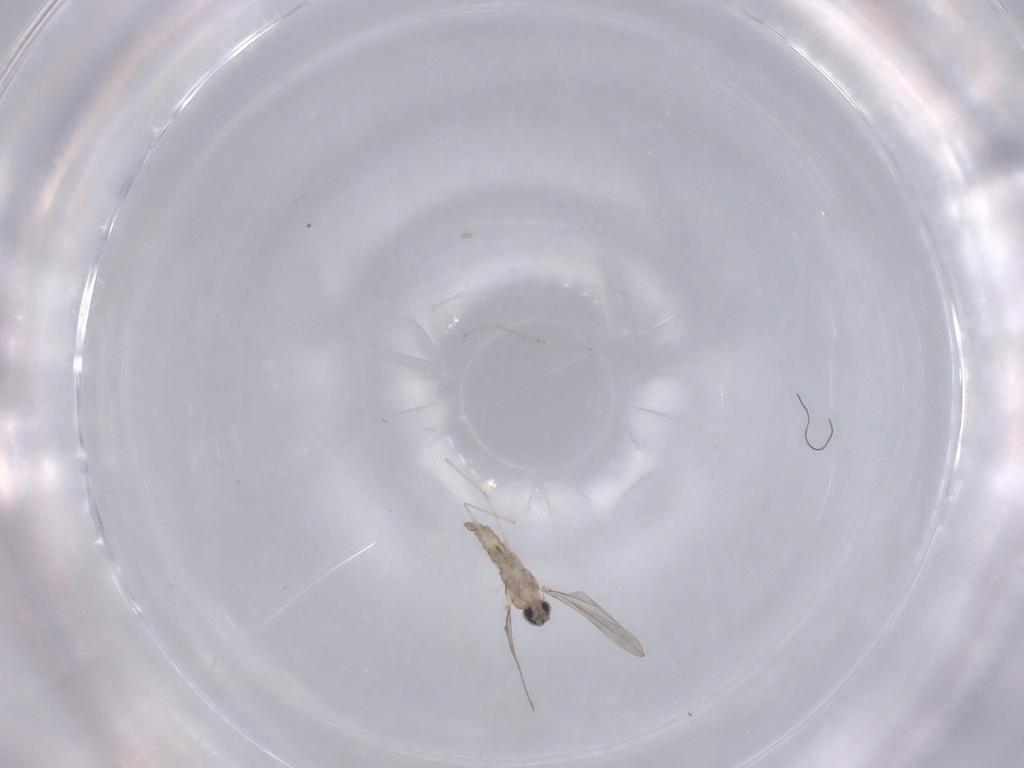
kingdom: Animalia
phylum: Arthropoda
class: Insecta
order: Diptera
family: Cecidomyiidae
